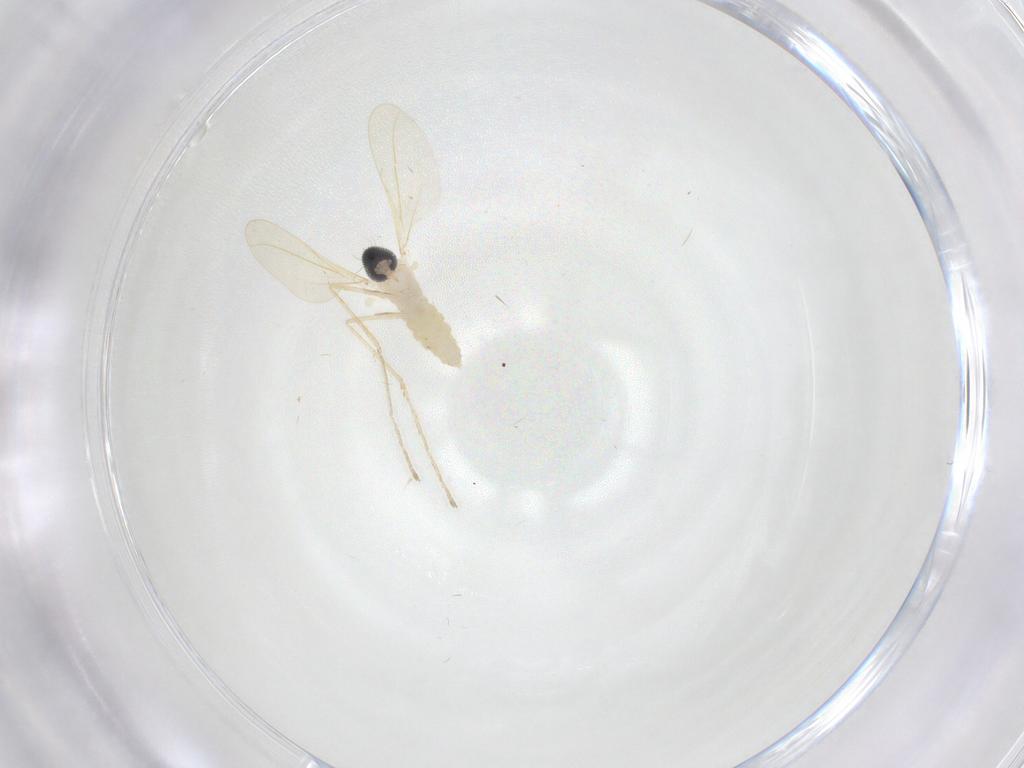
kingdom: Animalia
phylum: Arthropoda
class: Insecta
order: Diptera
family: Cecidomyiidae
